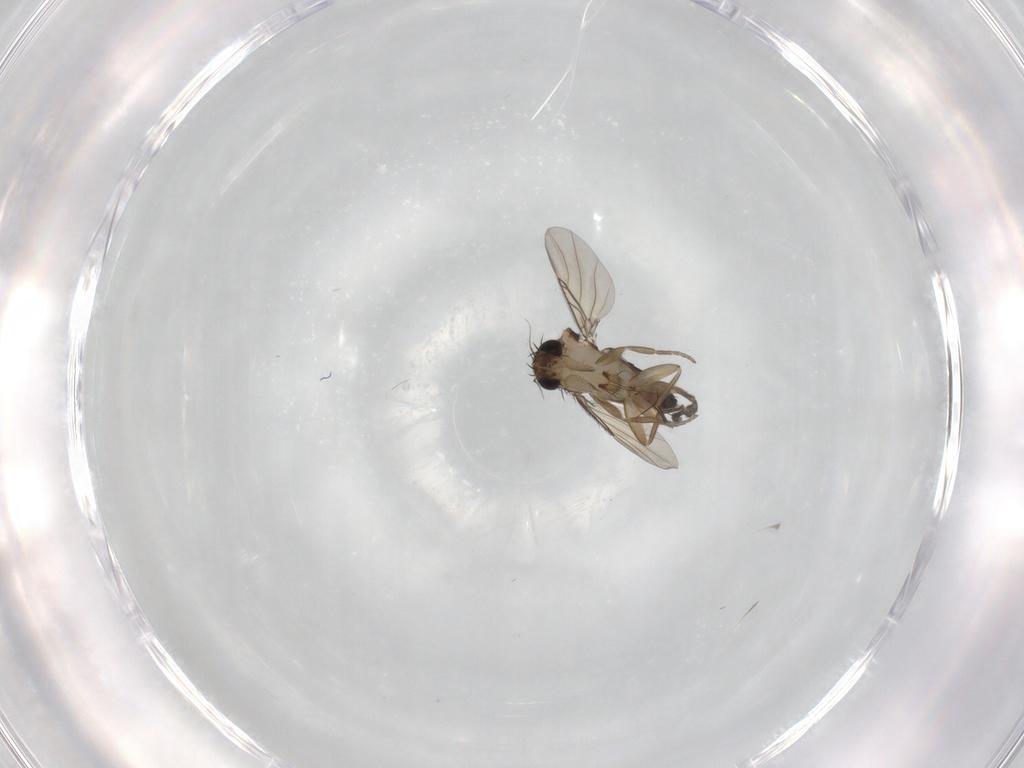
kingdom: Animalia
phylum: Arthropoda
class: Insecta
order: Diptera
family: Phoridae
